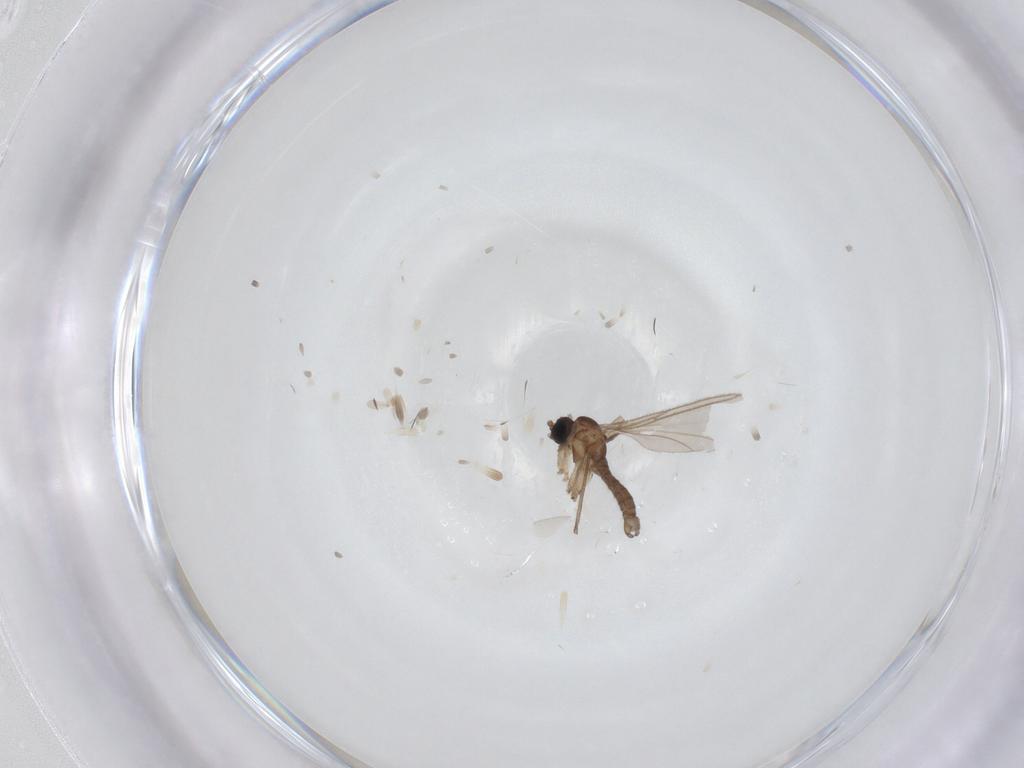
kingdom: Animalia
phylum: Arthropoda
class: Insecta
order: Diptera
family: Sciaridae
